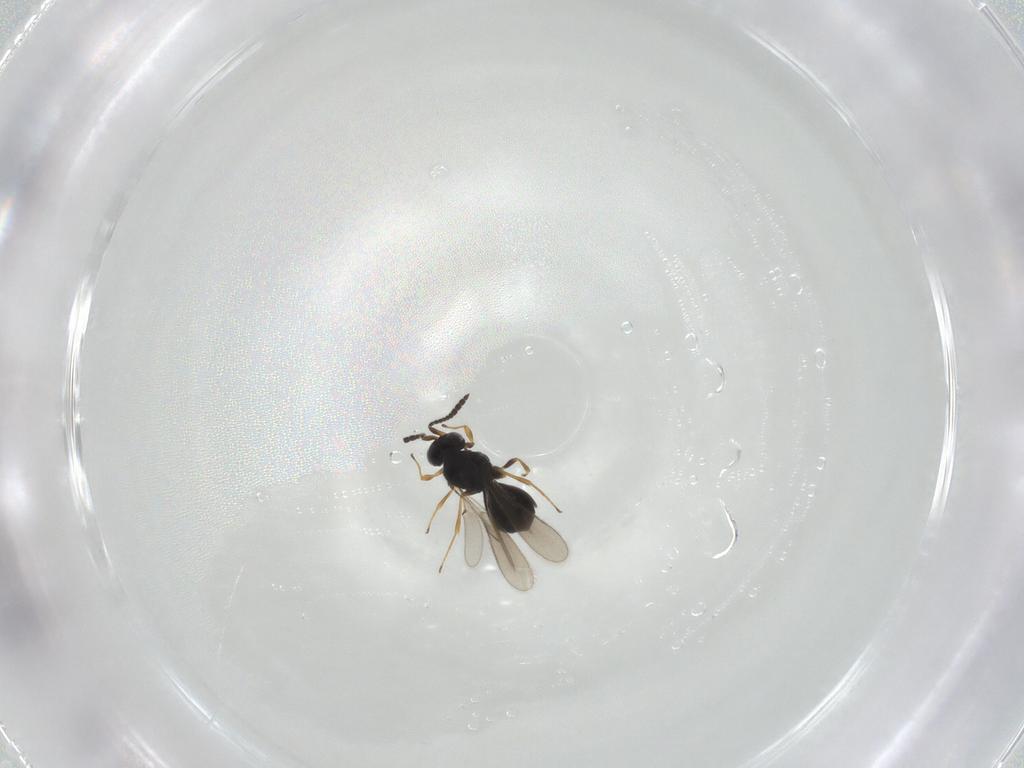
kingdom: Animalia
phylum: Arthropoda
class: Insecta
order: Hymenoptera
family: Scelionidae
